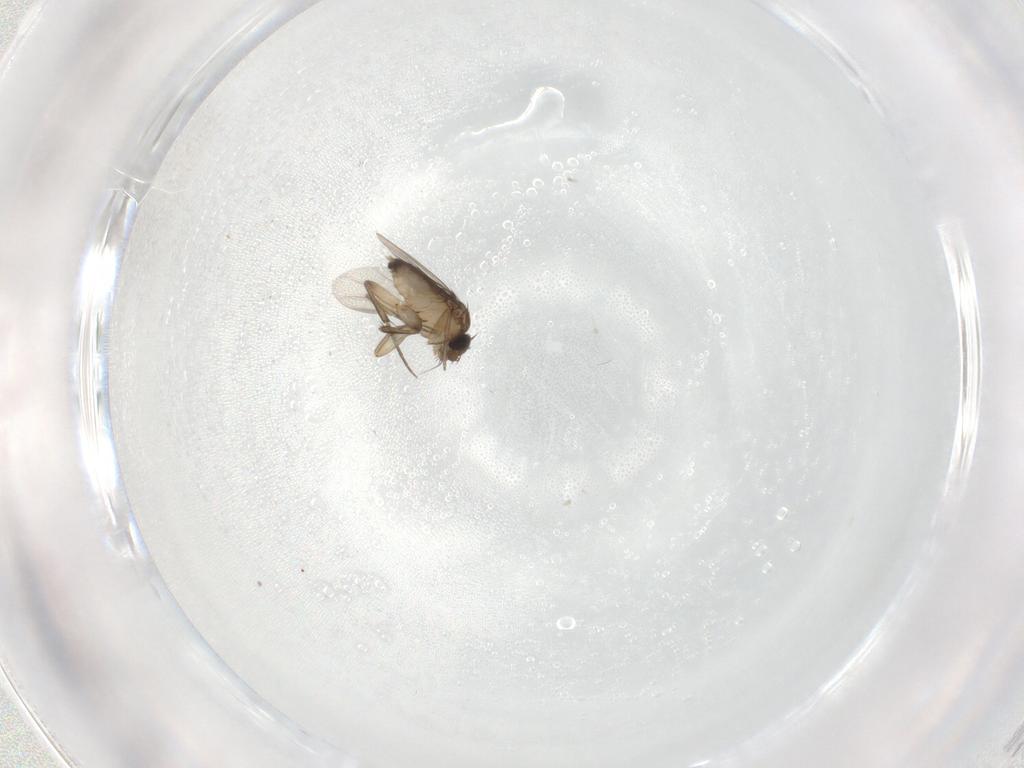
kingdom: Animalia
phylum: Arthropoda
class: Insecta
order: Diptera
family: Phoridae
